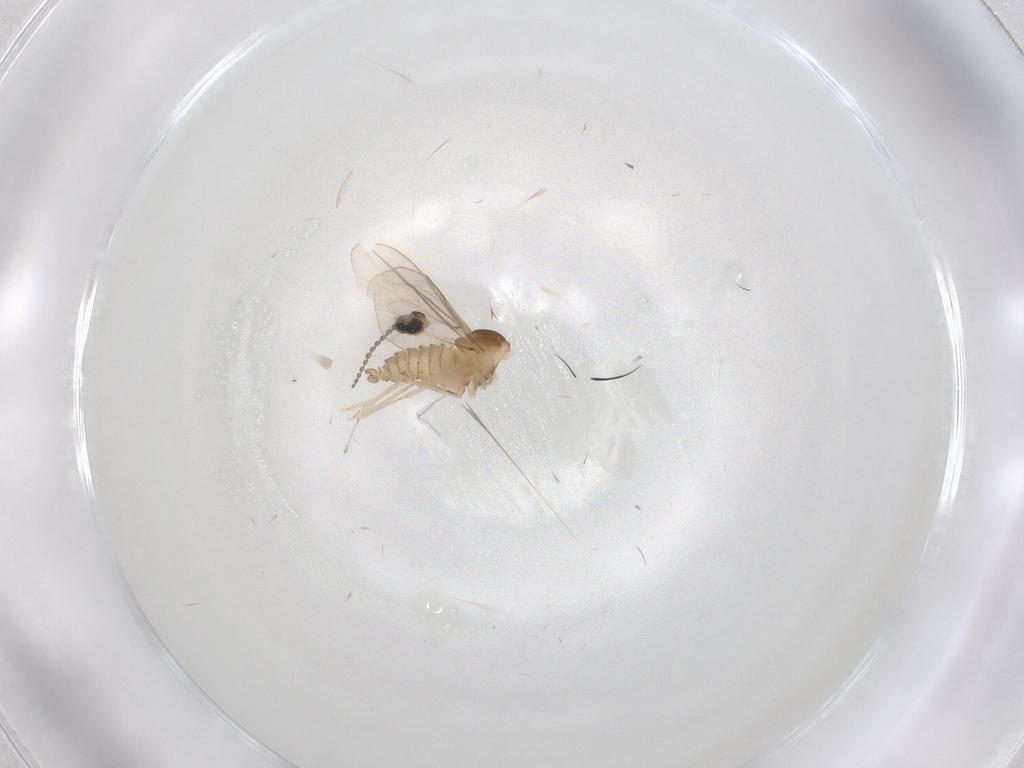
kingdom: Animalia
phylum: Arthropoda
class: Insecta
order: Diptera
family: Cecidomyiidae
